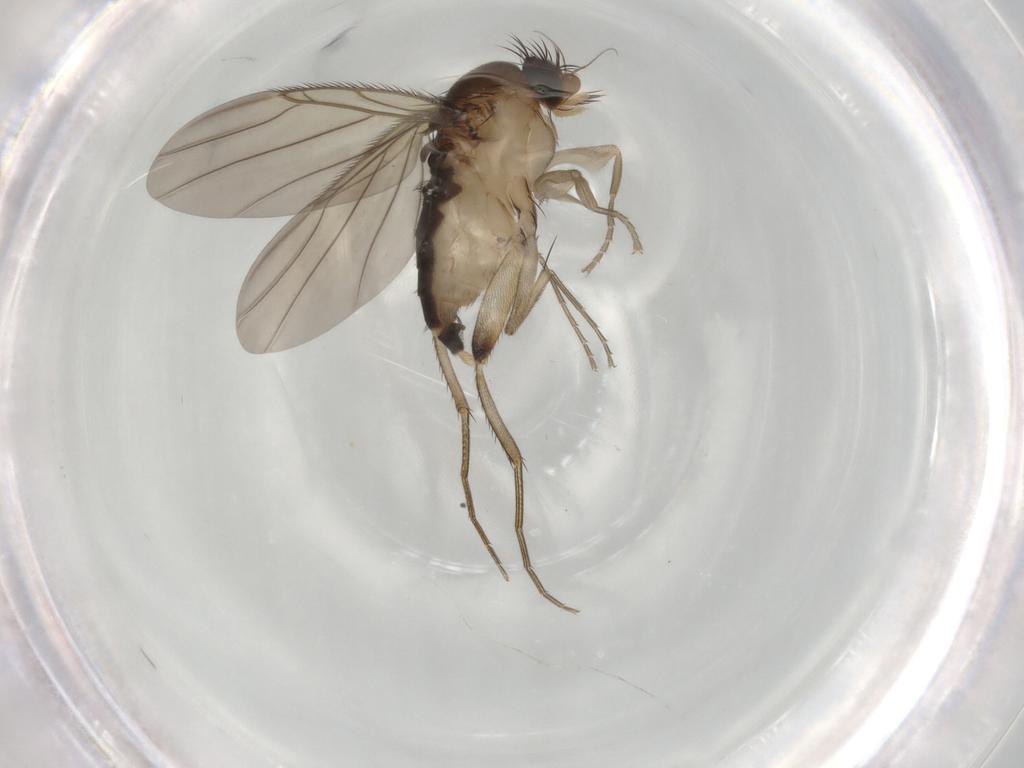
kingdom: Animalia
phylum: Arthropoda
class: Insecta
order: Diptera
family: Phoridae
